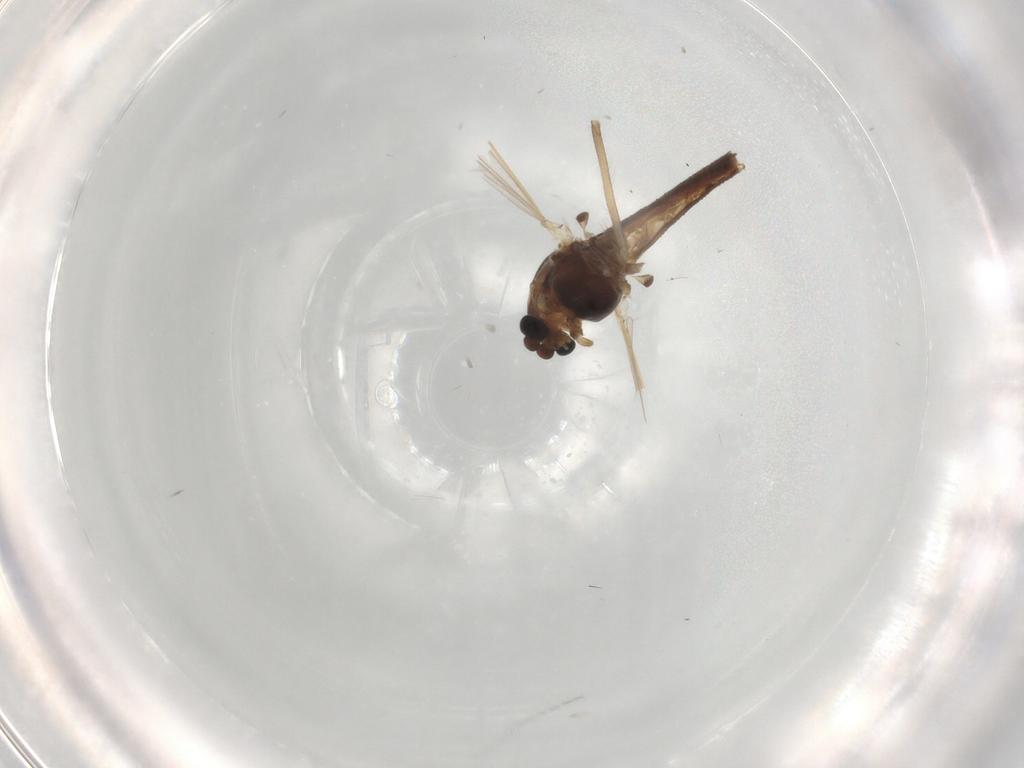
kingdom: Animalia
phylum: Arthropoda
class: Insecta
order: Diptera
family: Chironomidae
